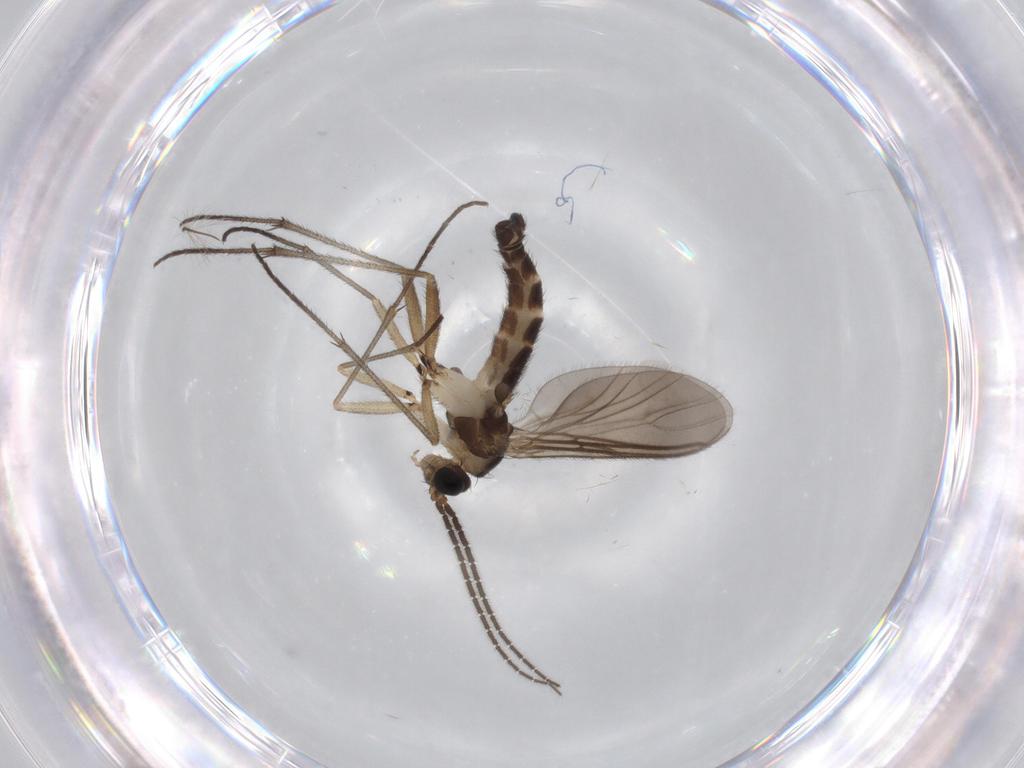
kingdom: Animalia
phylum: Arthropoda
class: Insecta
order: Diptera
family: Sciaridae
